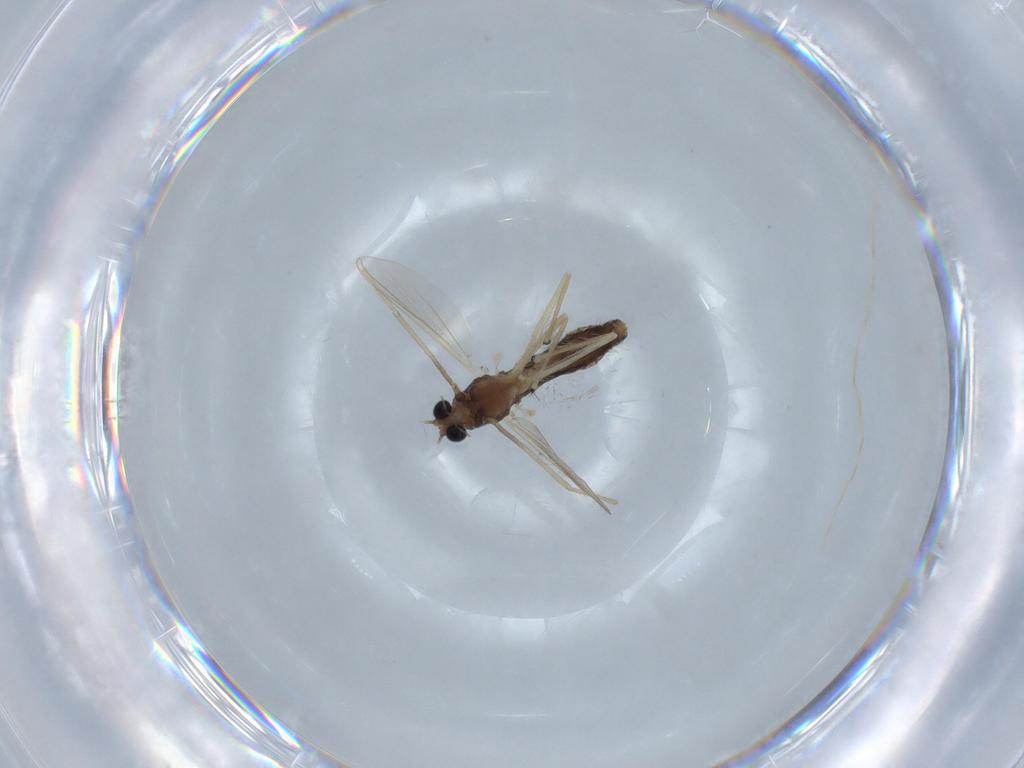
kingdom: Animalia
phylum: Arthropoda
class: Insecta
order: Diptera
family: Chironomidae
